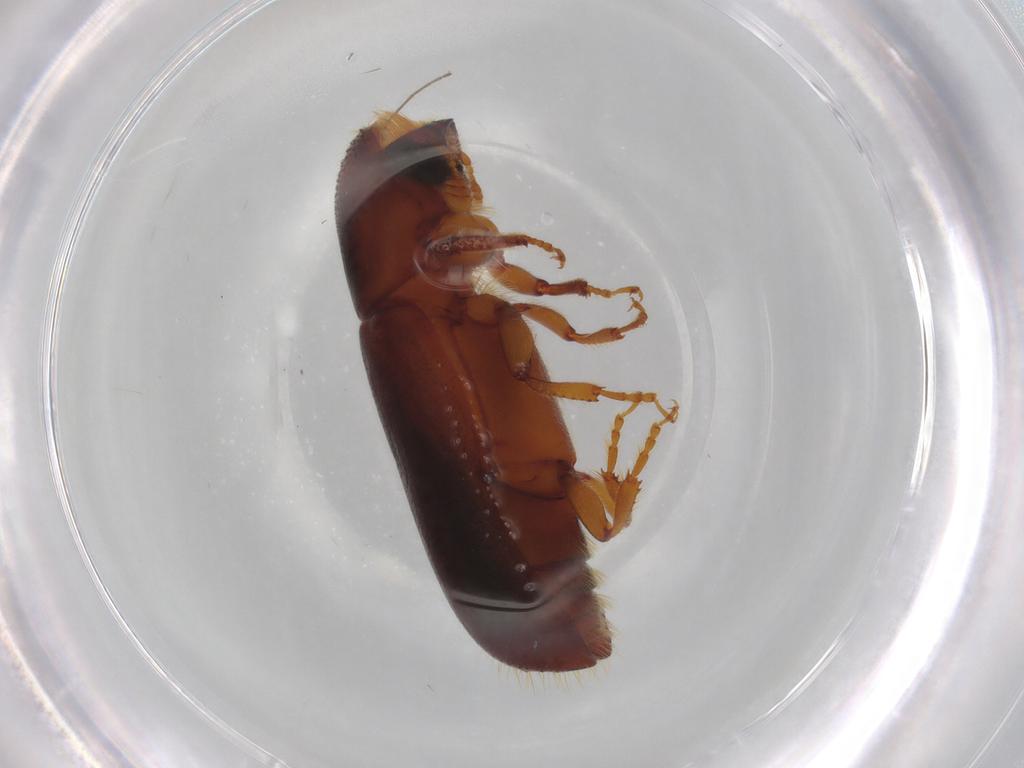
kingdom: Animalia
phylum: Arthropoda
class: Insecta
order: Coleoptera
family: Curculionidae
